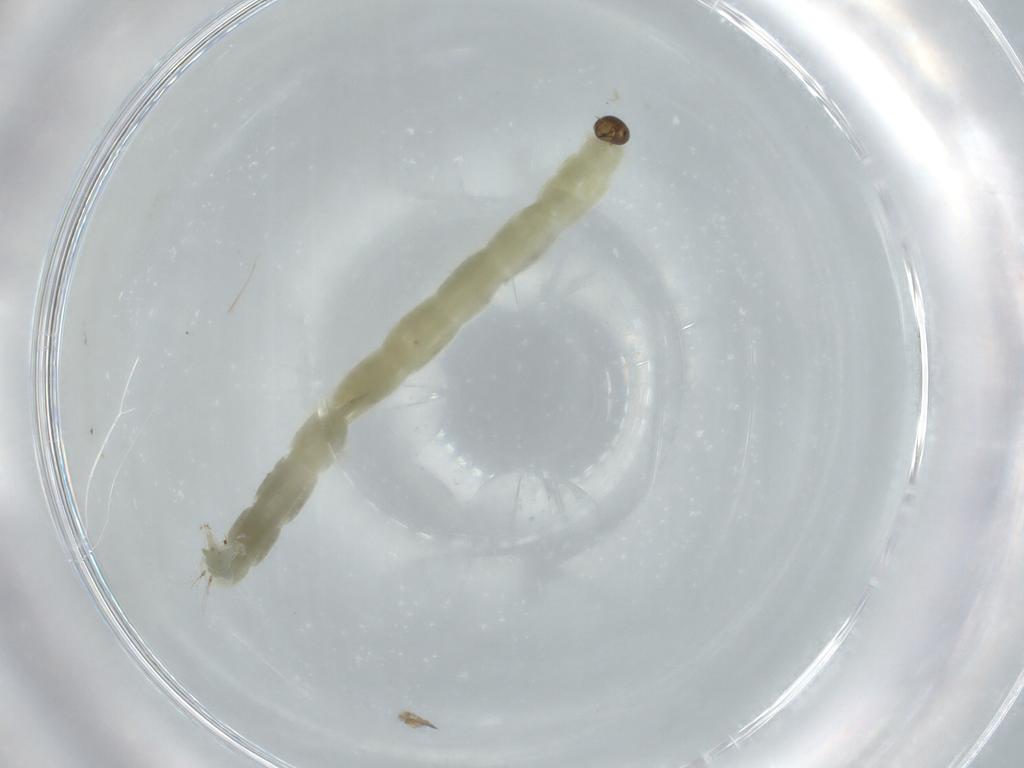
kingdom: Animalia
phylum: Arthropoda
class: Insecta
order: Diptera
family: Chironomidae
